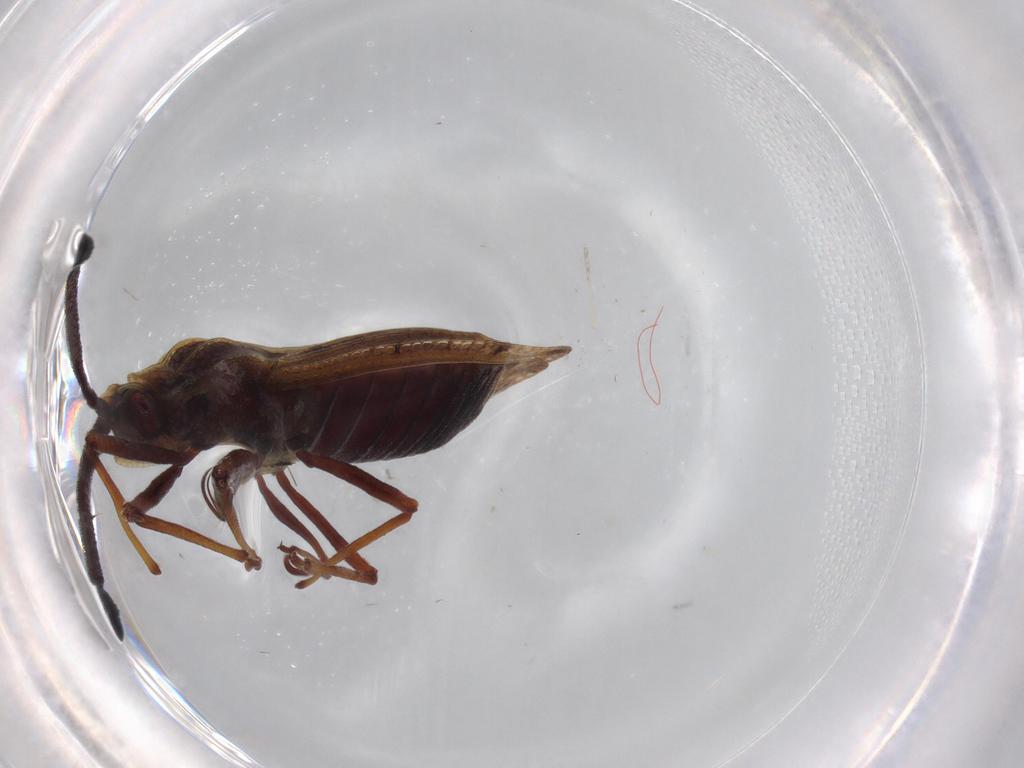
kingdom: Animalia
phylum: Arthropoda
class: Insecta
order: Hemiptera
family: Tingidae
